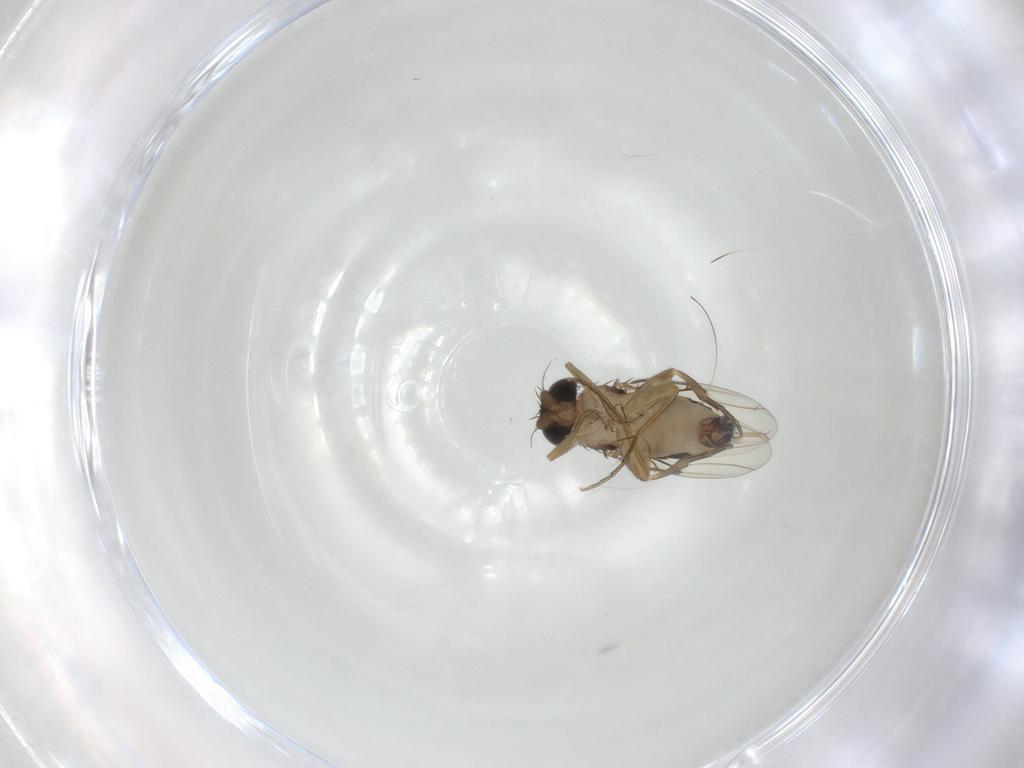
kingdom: Animalia
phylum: Arthropoda
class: Insecta
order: Diptera
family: Phoridae
